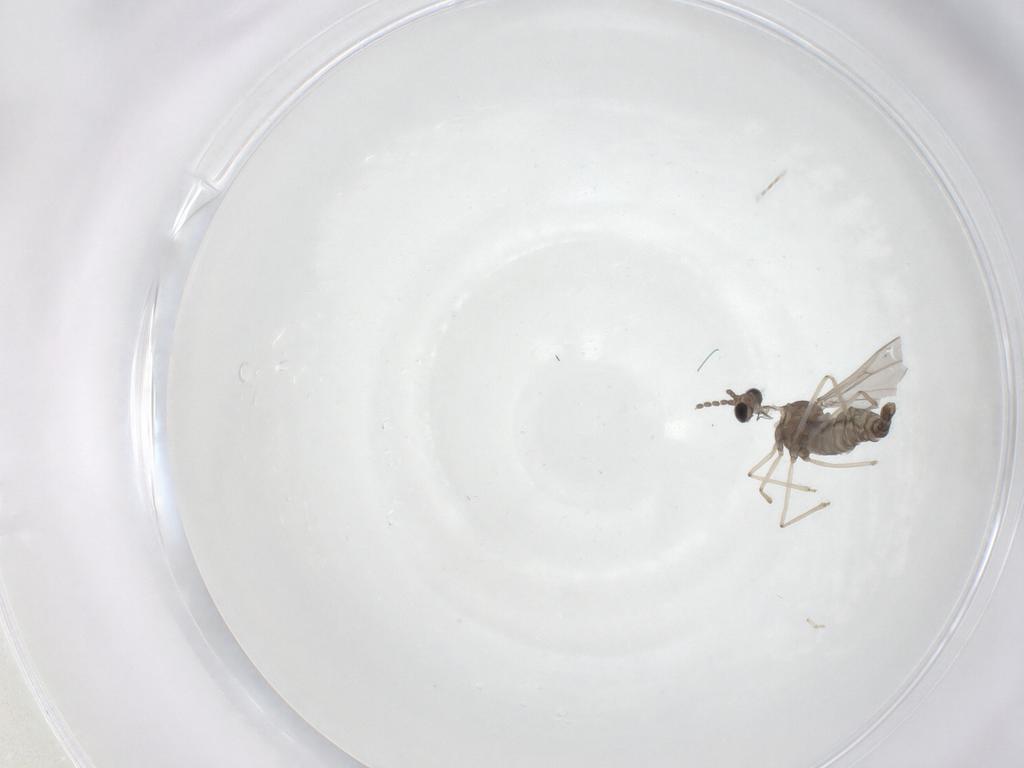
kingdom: Animalia
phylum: Arthropoda
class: Insecta
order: Diptera
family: Cecidomyiidae
